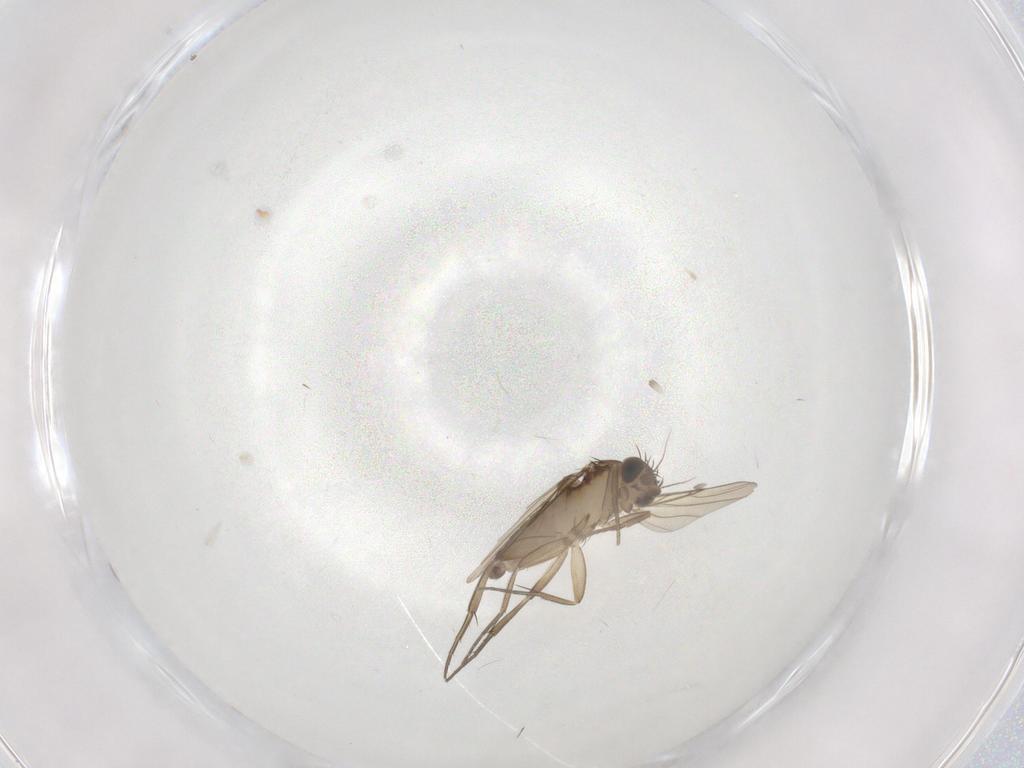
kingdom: Animalia
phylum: Arthropoda
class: Insecta
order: Diptera
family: Phoridae
